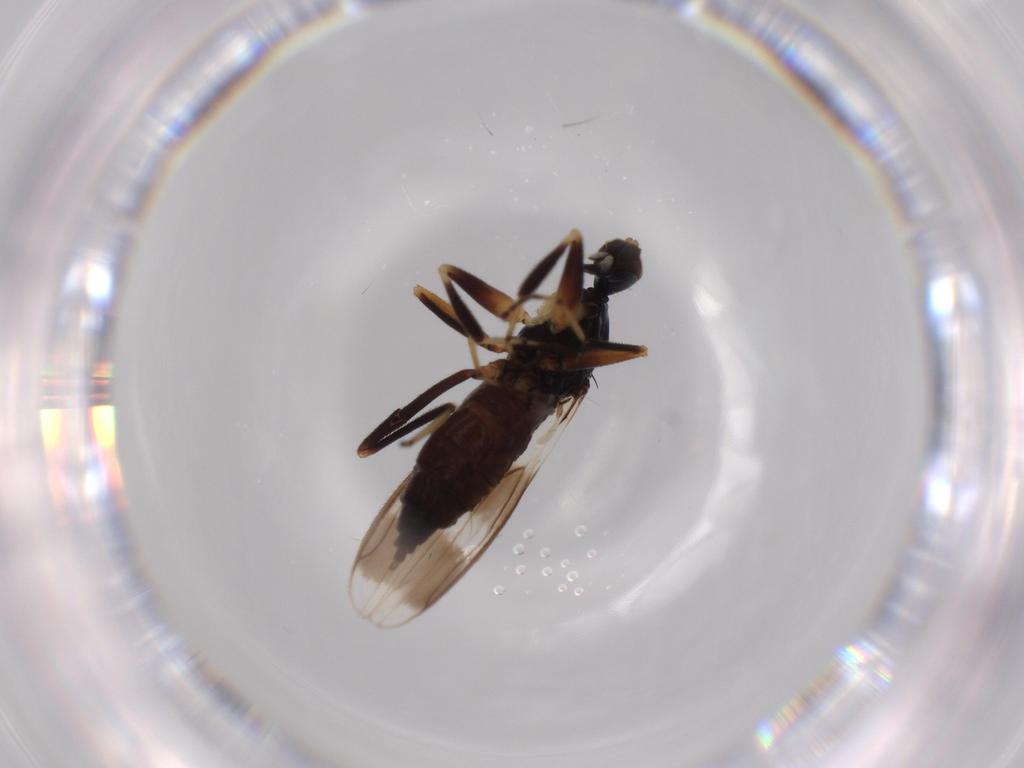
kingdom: Animalia
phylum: Arthropoda
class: Insecta
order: Diptera
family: Hybotidae
